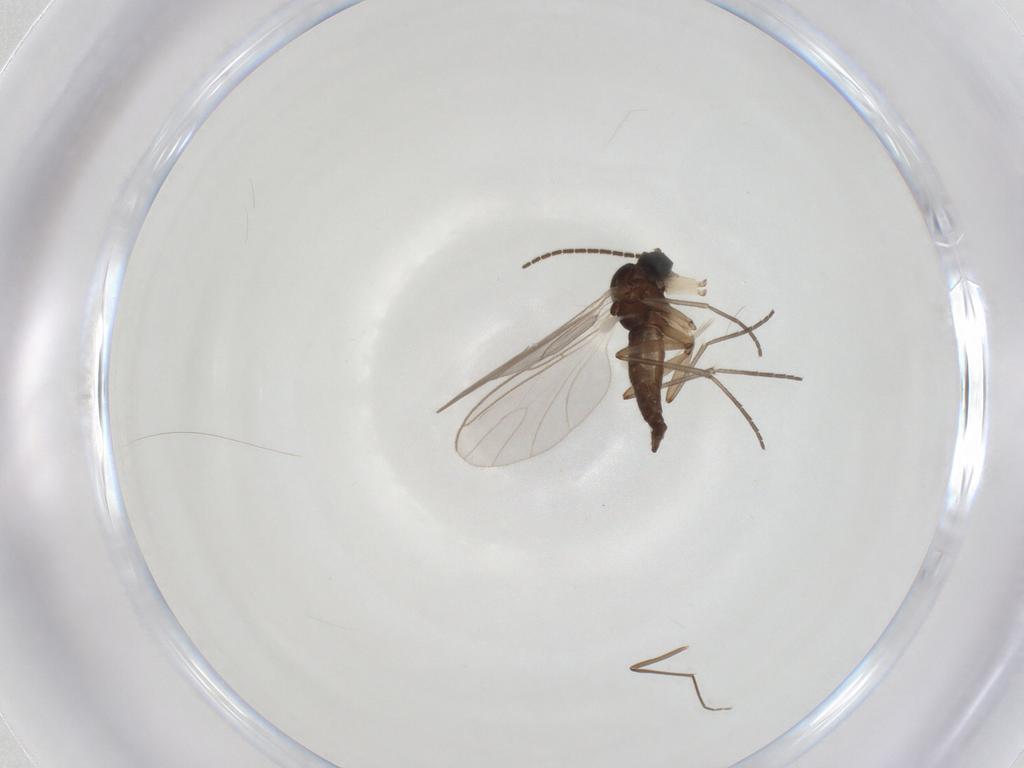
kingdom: Animalia
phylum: Arthropoda
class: Insecta
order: Diptera
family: Sciaridae
